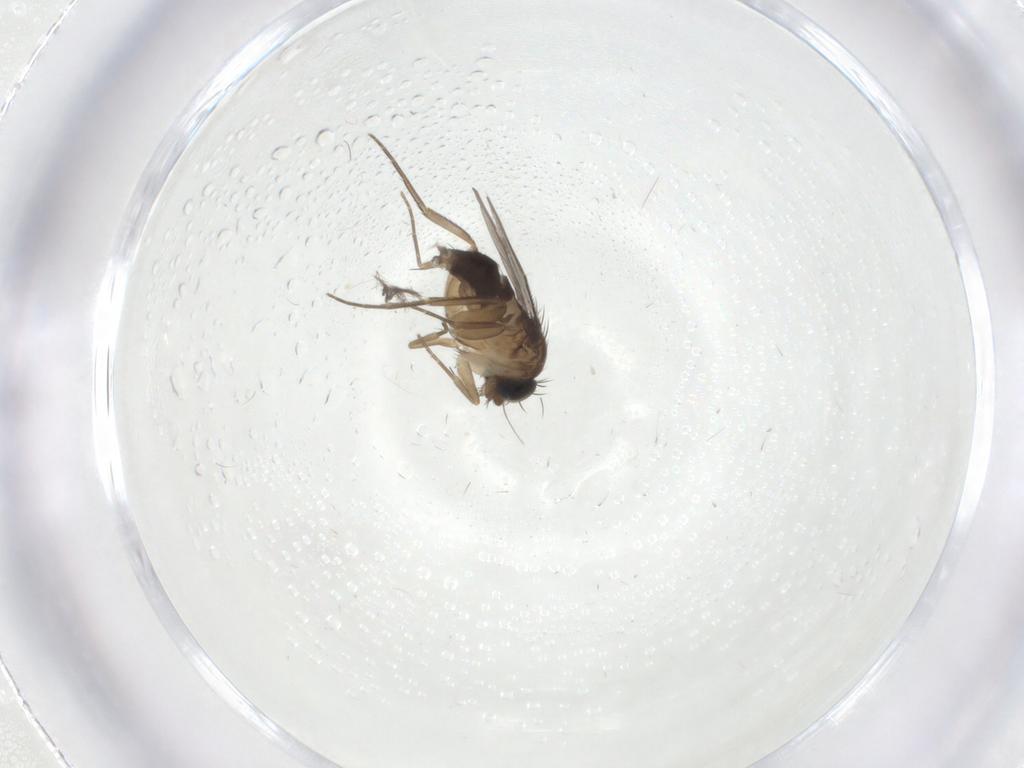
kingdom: Animalia
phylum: Arthropoda
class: Insecta
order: Diptera
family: Phoridae
